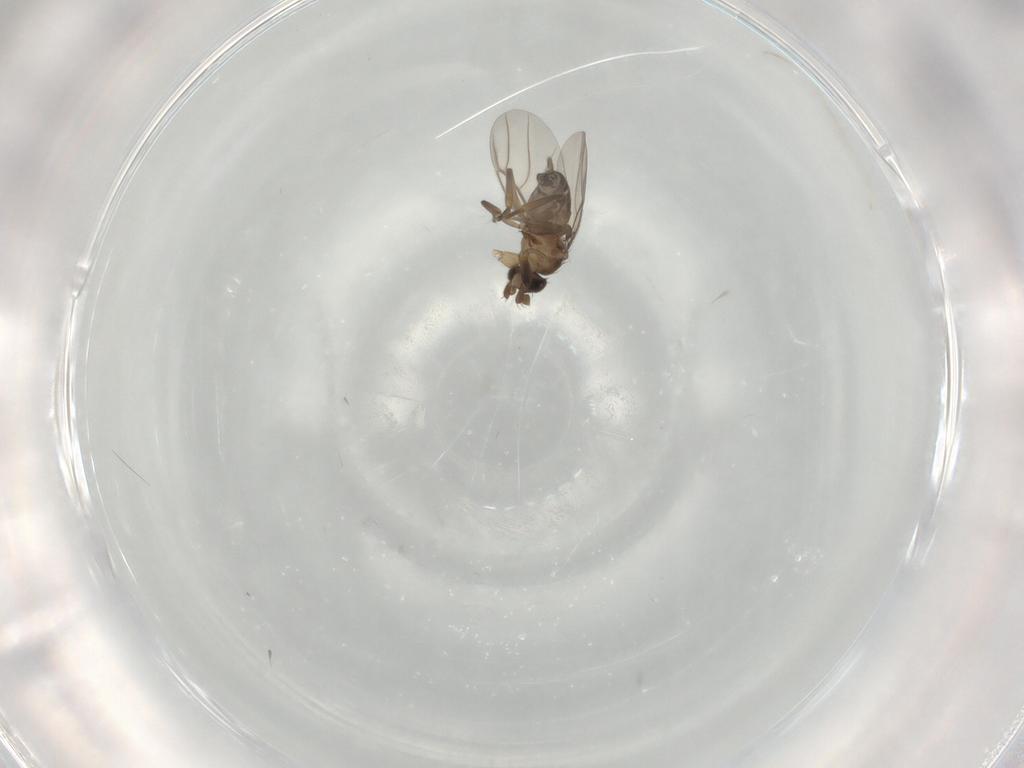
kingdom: Animalia
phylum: Arthropoda
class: Insecta
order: Diptera
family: Phoridae
